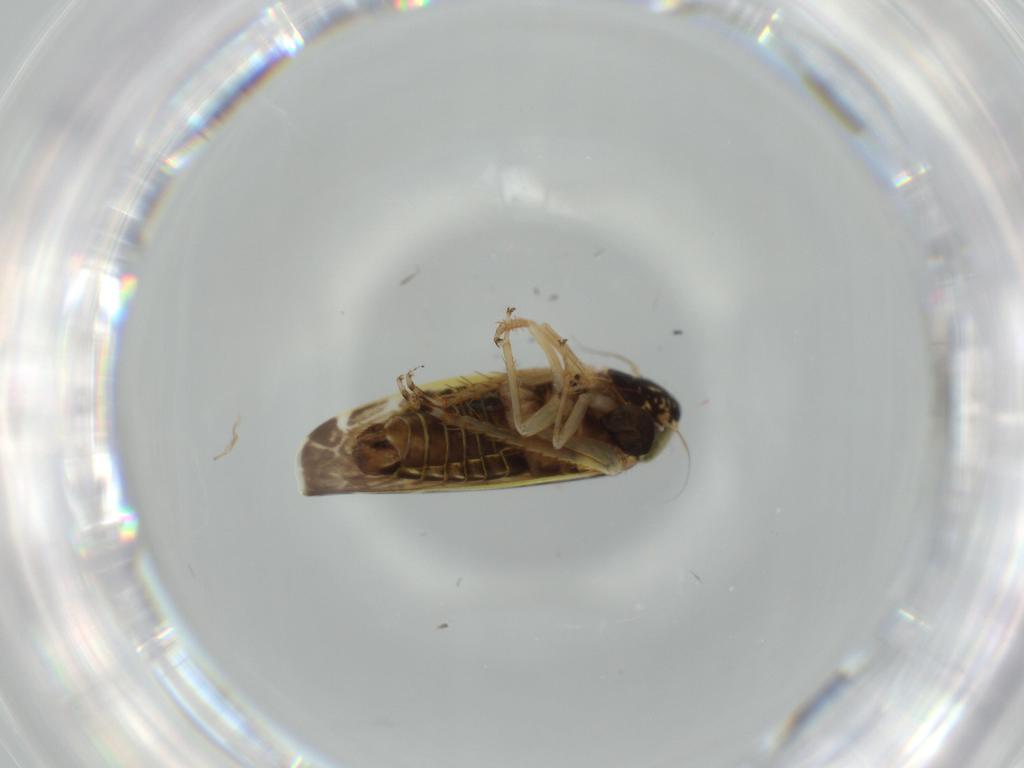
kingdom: Animalia
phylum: Arthropoda
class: Insecta
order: Hemiptera
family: Cicadellidae
